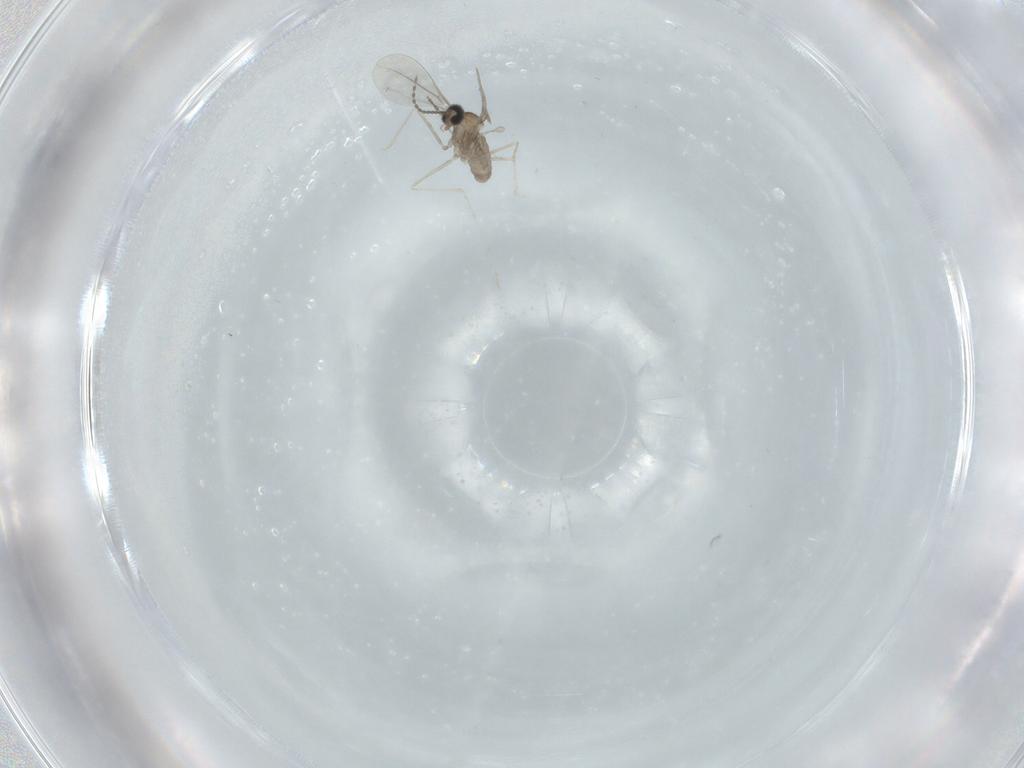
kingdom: Animalia
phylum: Arthropoda
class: Insecta
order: Diptera
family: Cecidomyiidae
